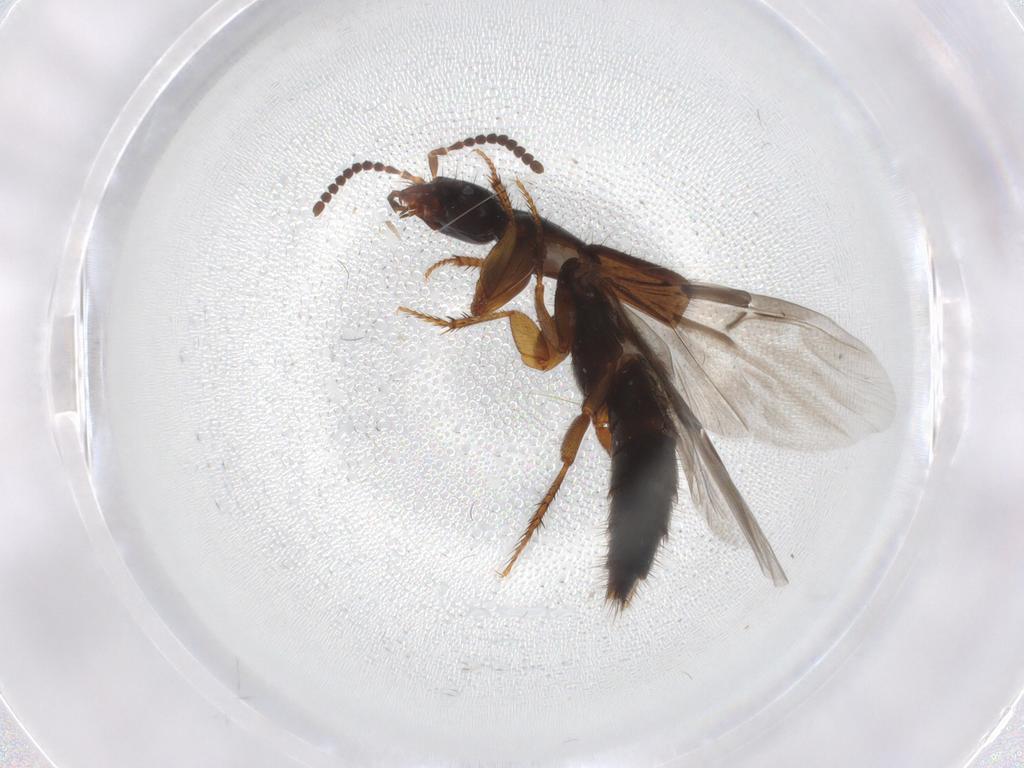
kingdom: Animalia
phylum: Arthropoda
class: Insecta
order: Coleoptera
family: Staphylinidae
